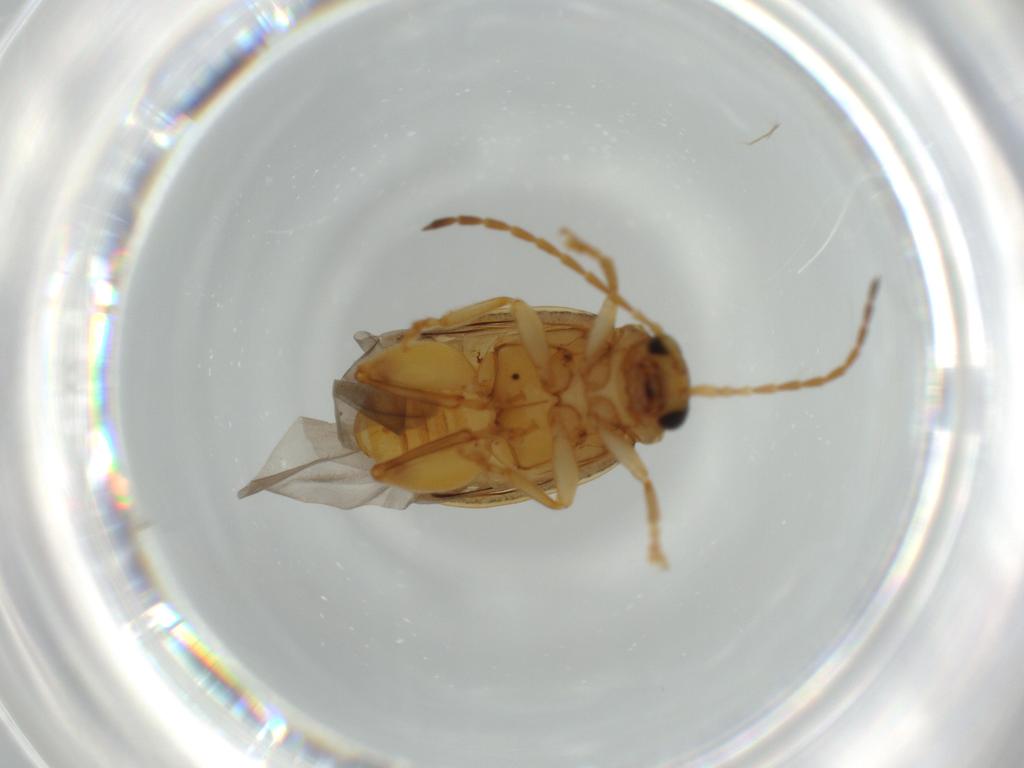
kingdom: Animalia
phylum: Arthropoda
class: Insecta
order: Coleoptera
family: Chrysomelidae
